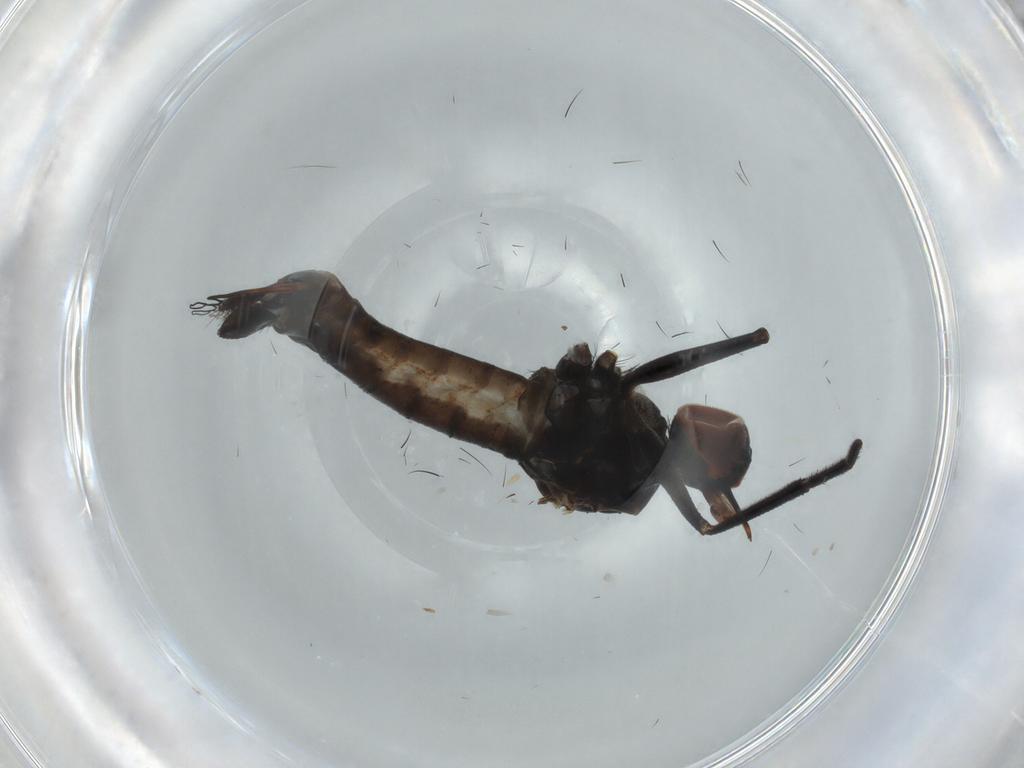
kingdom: Animalia
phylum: Arthropoda
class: Insecta
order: Diptera
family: Empididae
